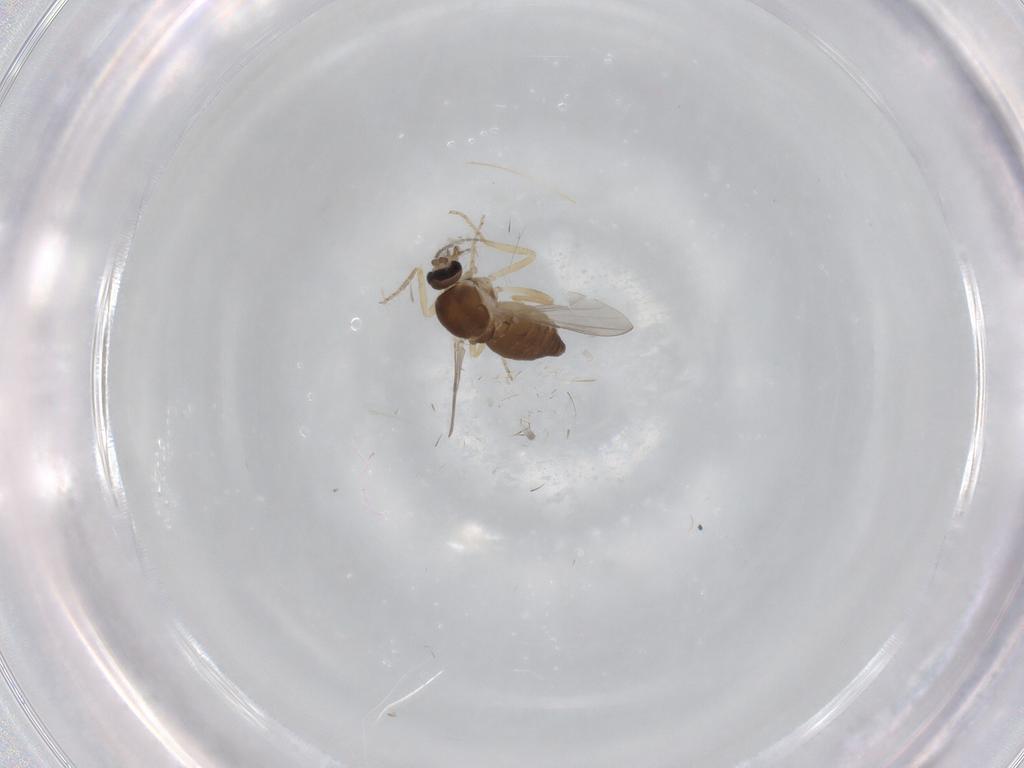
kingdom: Animalia
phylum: Arthropoda
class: Insecta
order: Diptera
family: Ceratopogonidae
